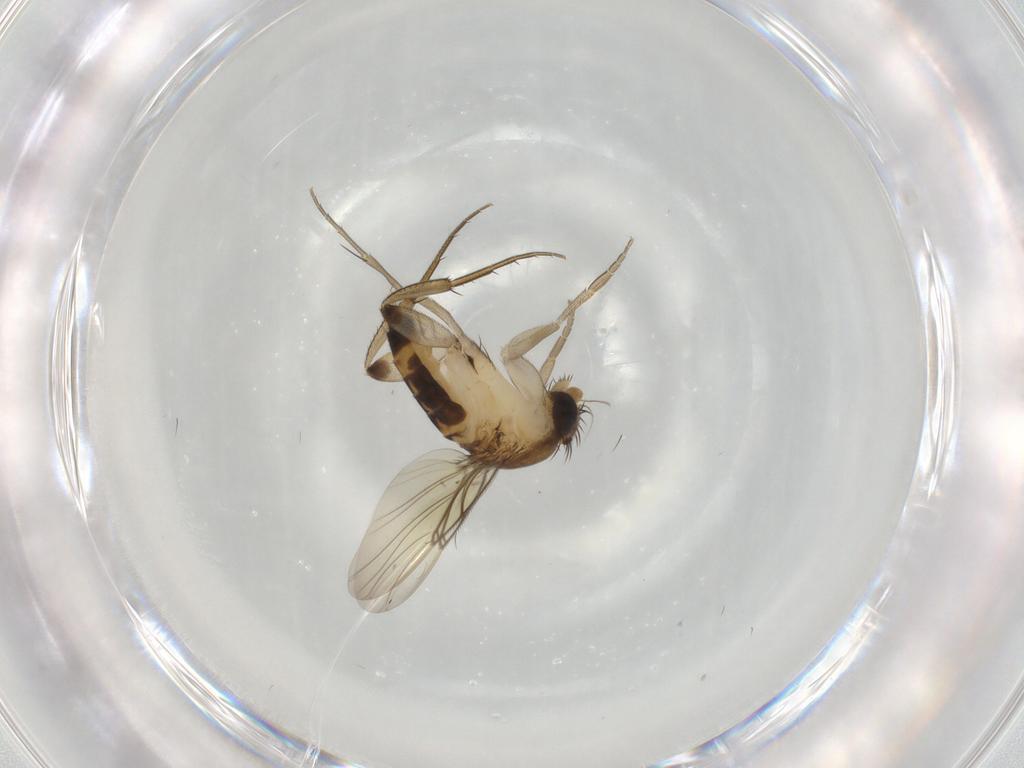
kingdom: Animalia
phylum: Arthropoda
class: Insecta
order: Diptera
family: Phoridae
